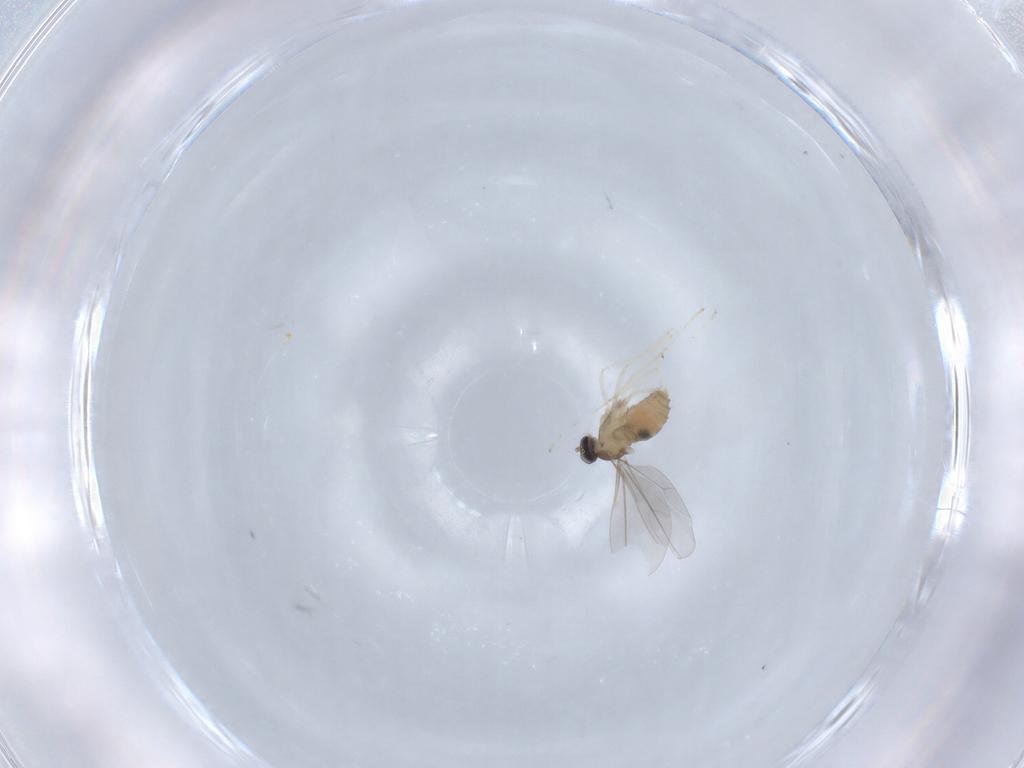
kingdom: Animalia
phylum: Arthropoda
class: Insecta
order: Diptera
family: Cecidomyiidae
